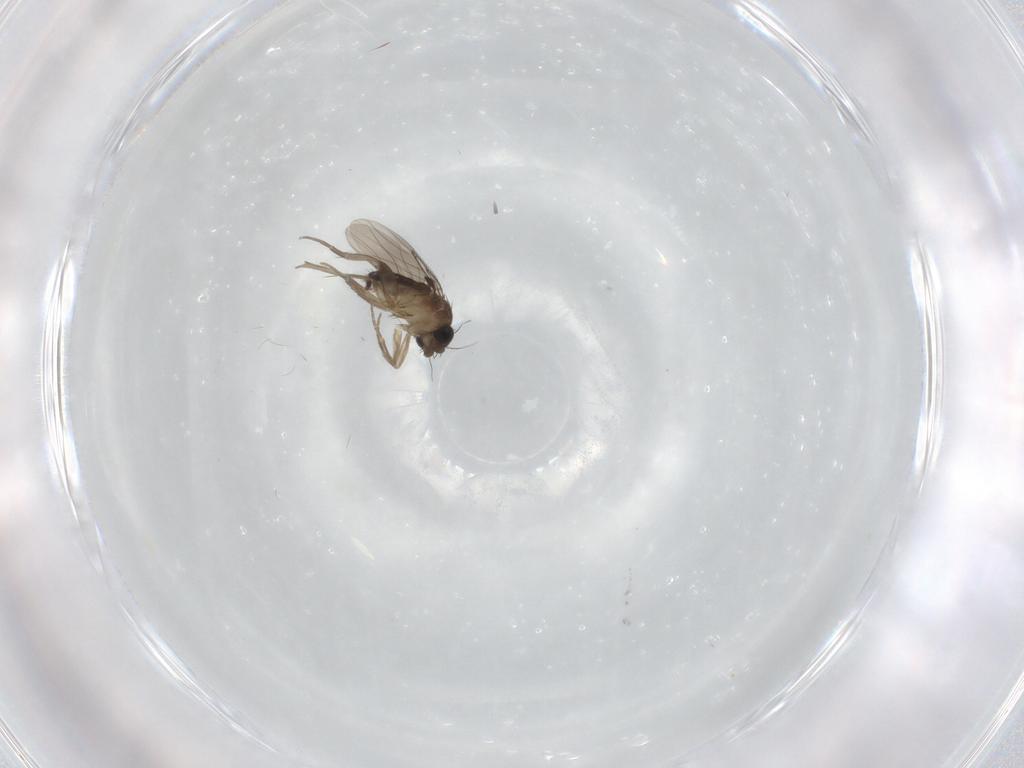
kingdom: Animalia
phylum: Arthropoda
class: Insecta
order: Diptera
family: Phoridae
